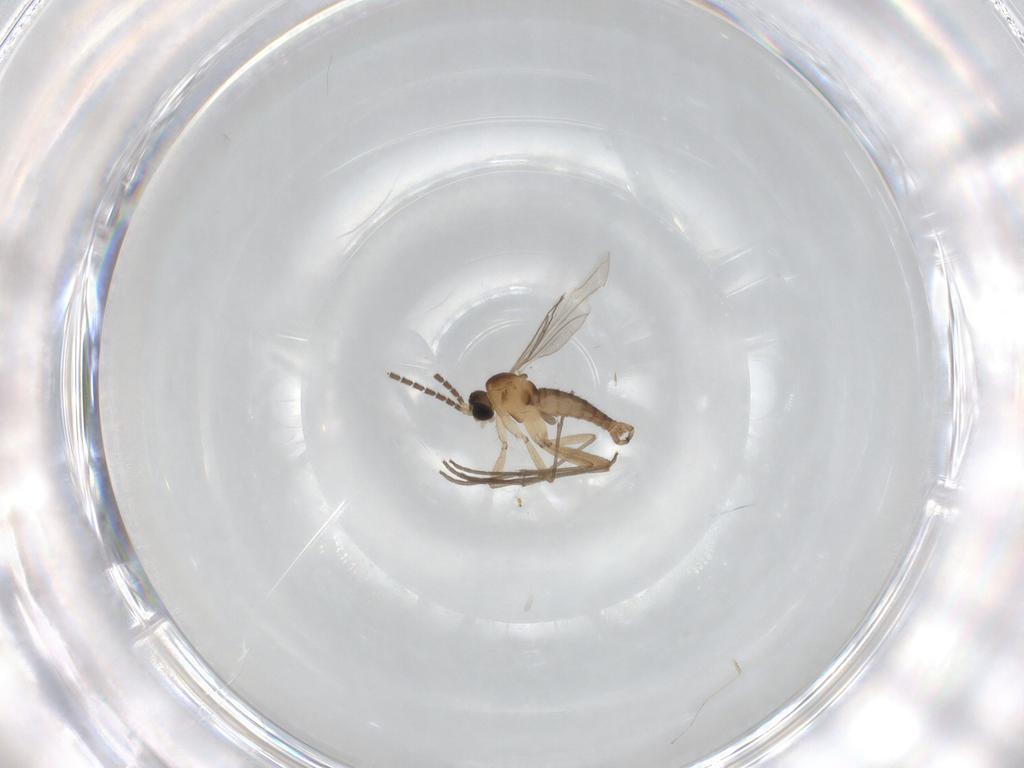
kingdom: Animalia
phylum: Arthropoda
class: Insecta
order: Diptera
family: Sciaridae
